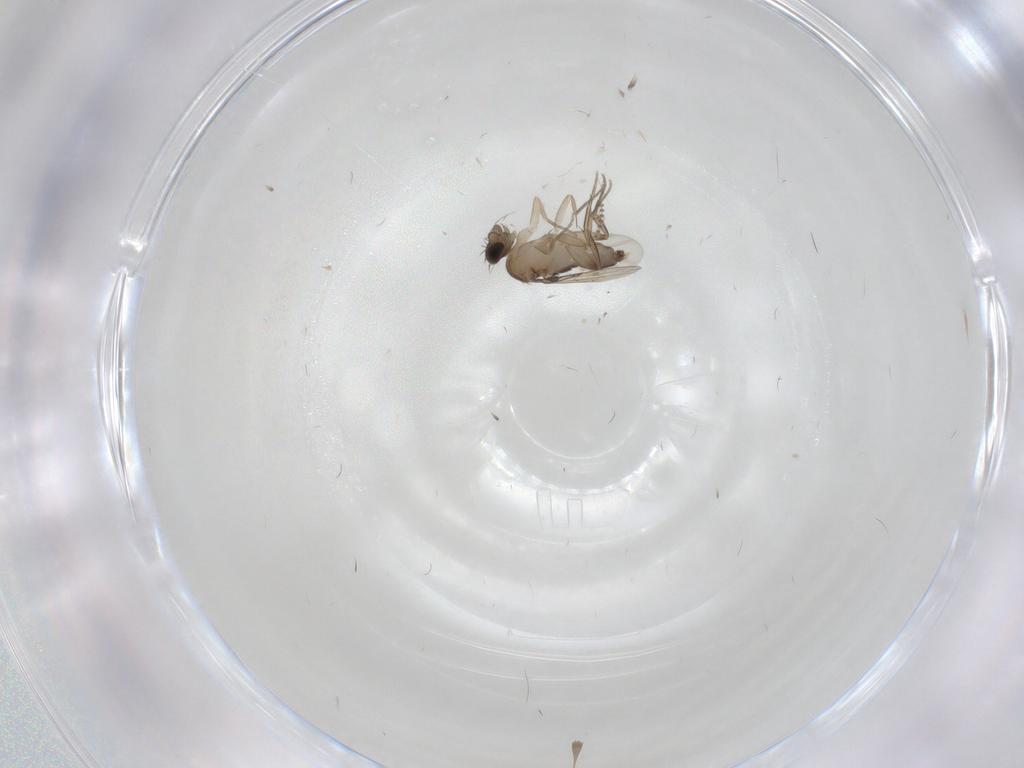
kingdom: Animalia
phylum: Arthropoda
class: Insecta
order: Diptera
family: Psychodidae
